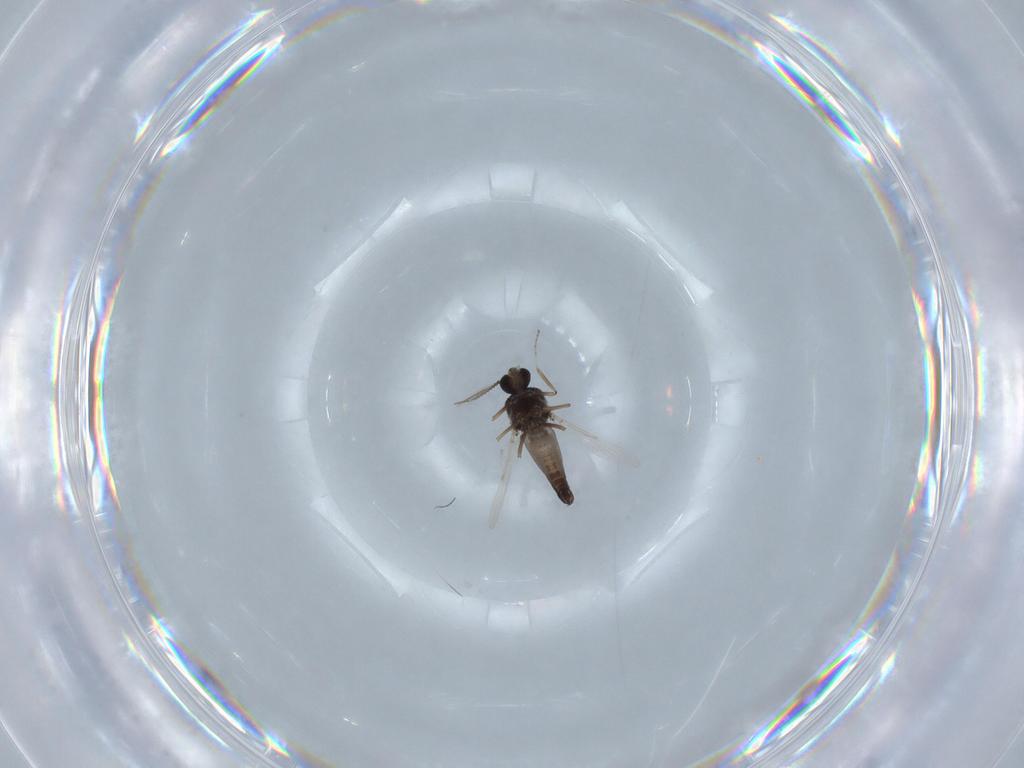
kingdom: Animalia
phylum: Arthropoda
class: Insecta
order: Diptera
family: Ceratopogonidae
